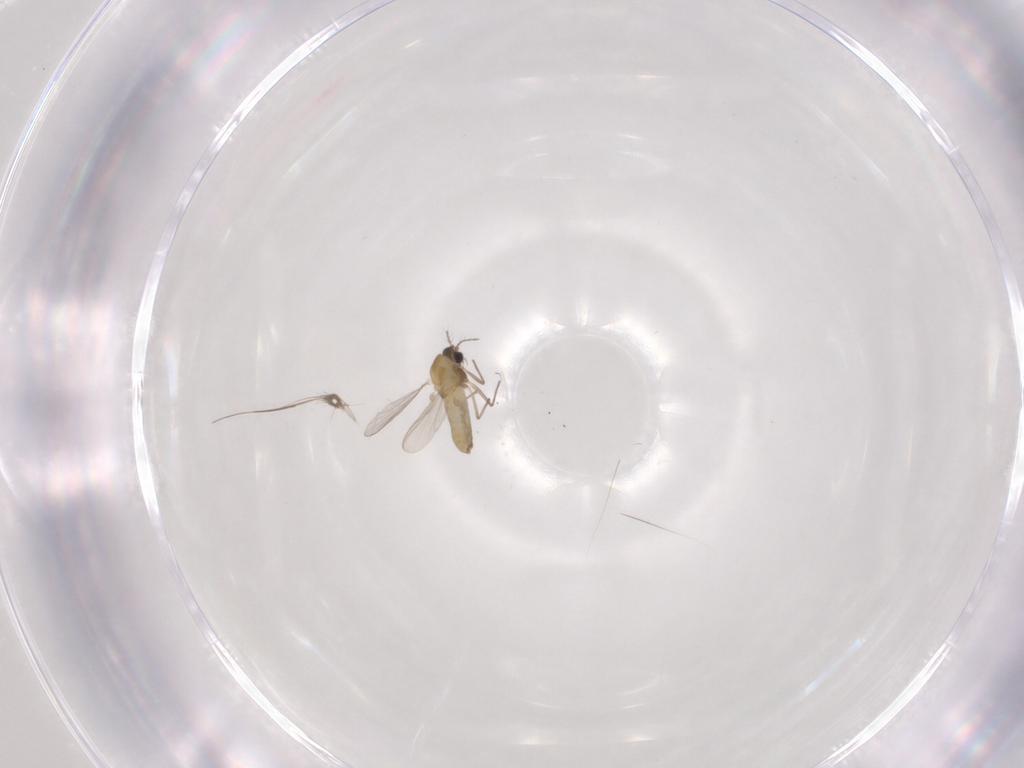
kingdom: Animalia
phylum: Arthropoda
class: Insecta
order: Diptera
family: Chironomidae
